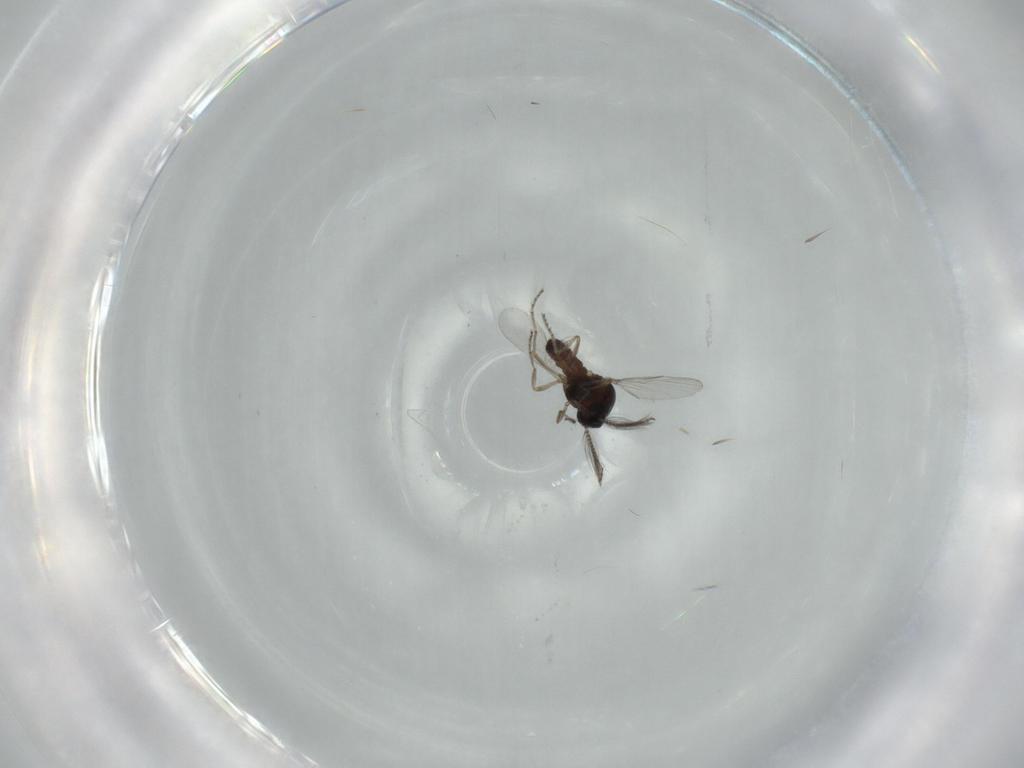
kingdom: Animalia
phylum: Arthropoda
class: Insecta
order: Diptera
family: Ceratopogonidae
